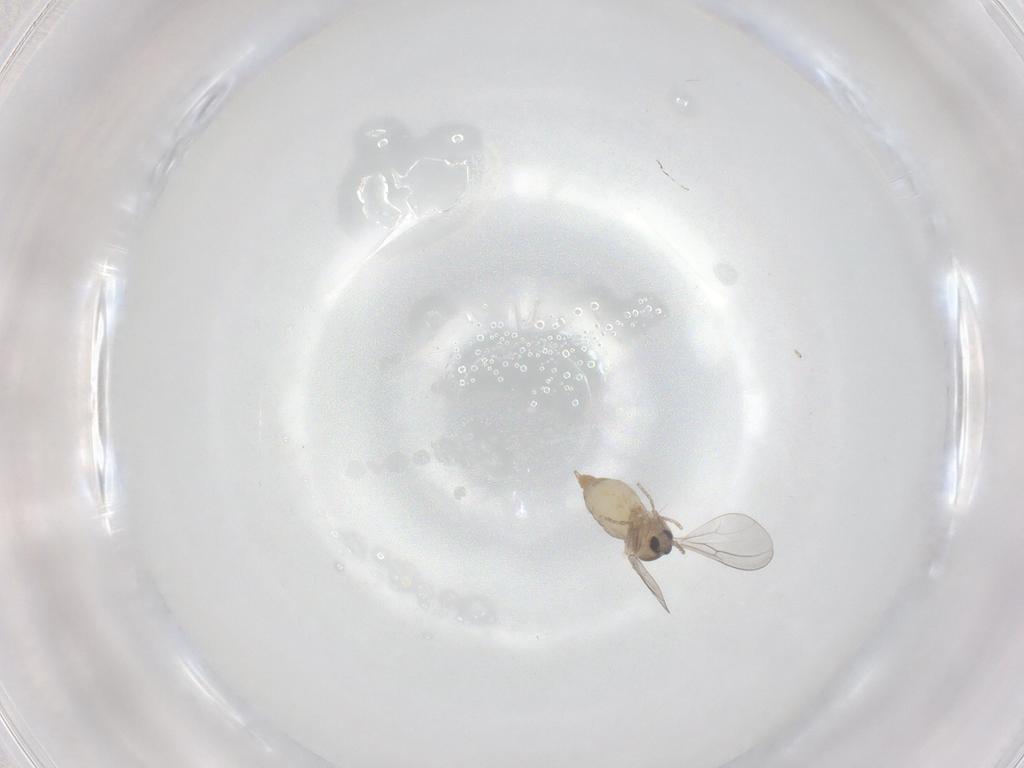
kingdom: Animalia
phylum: Arthropoda
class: Insecta
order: Diptera
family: Cecidomyiidae
